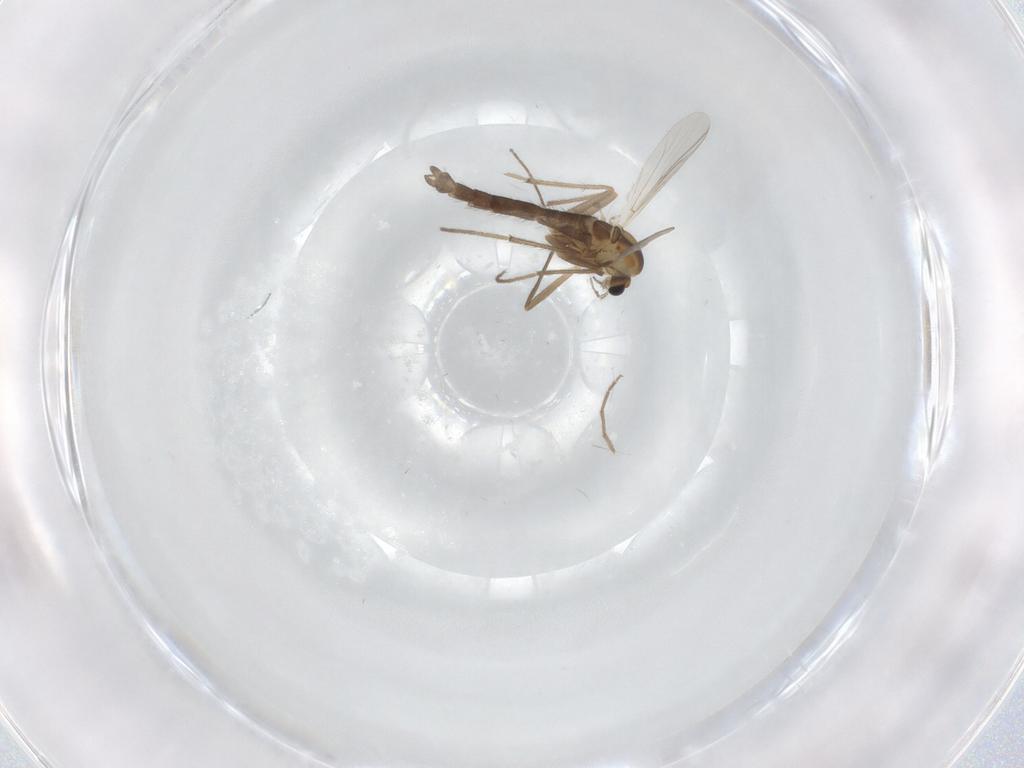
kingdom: Animalia
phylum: Arthropoda
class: Insecta
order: Diptera
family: Chironomidae
